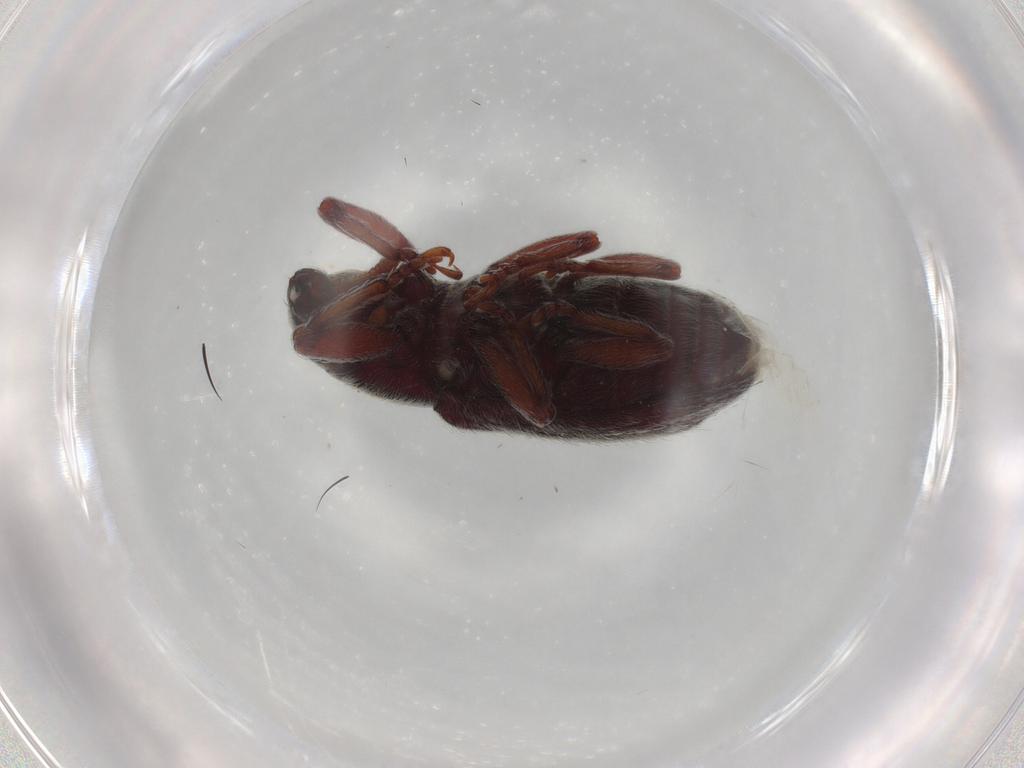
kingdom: Animalia
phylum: Arthropoda
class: Insecta
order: Coleoptera
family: Curculionidae
